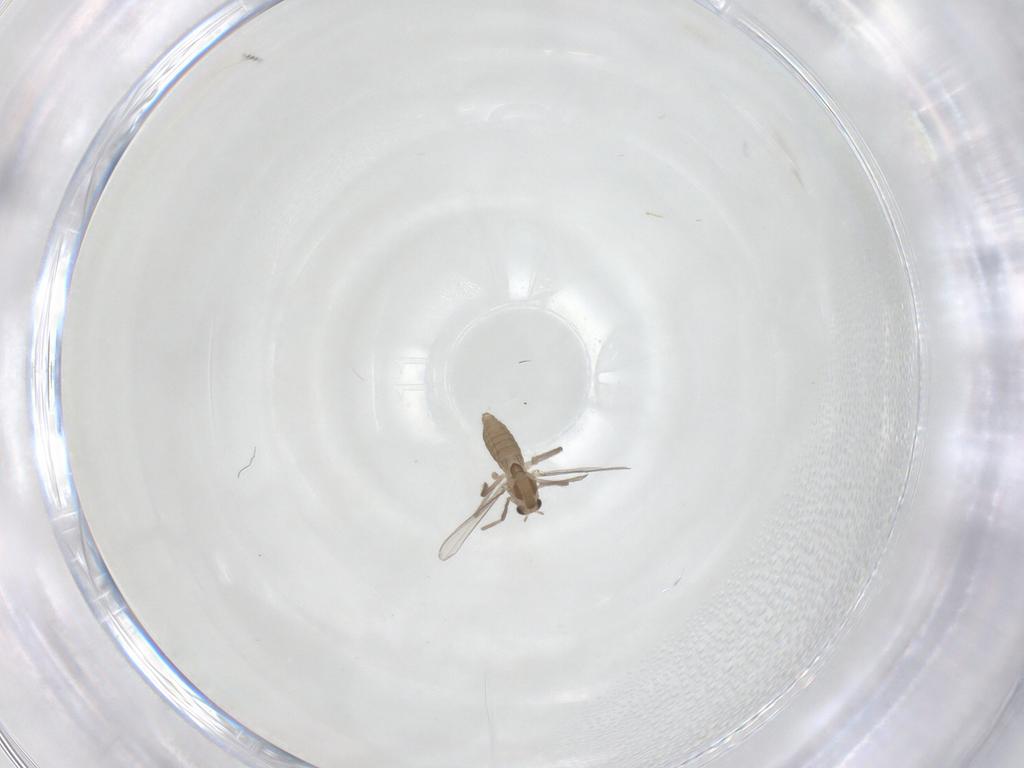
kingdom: Animalia
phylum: Arthropoda
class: Insecta
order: Diptera
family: Chironomidae
